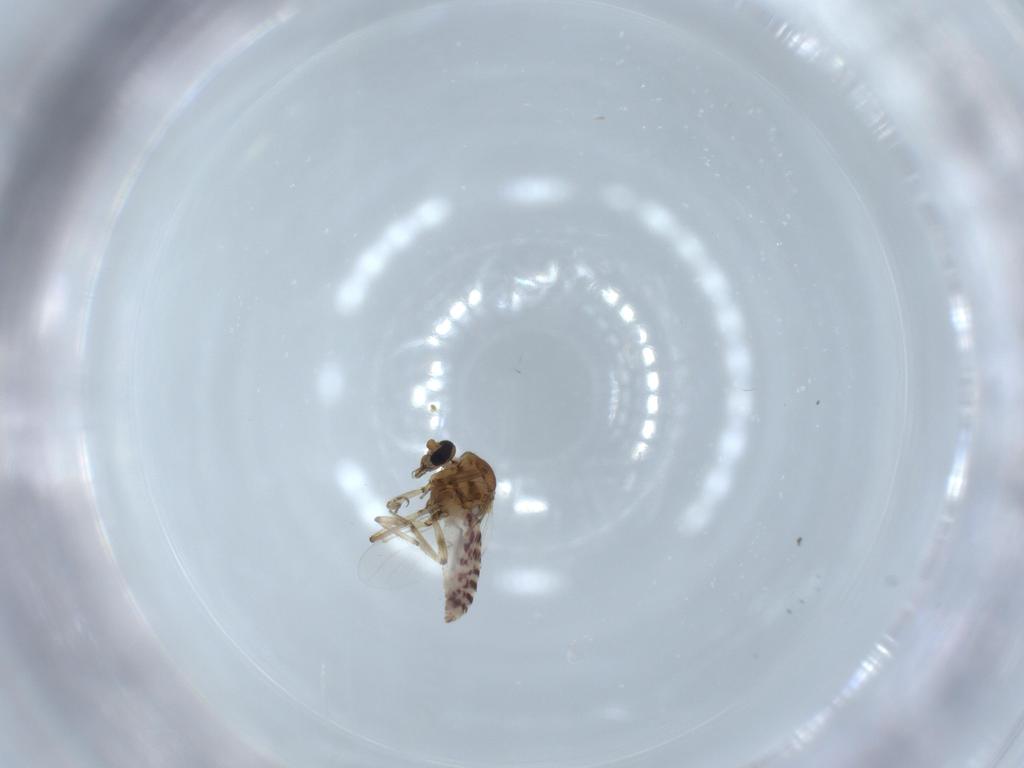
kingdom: Animalia
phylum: Arthropoda
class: Insecta
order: Diptera
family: Ceratopogonidae
